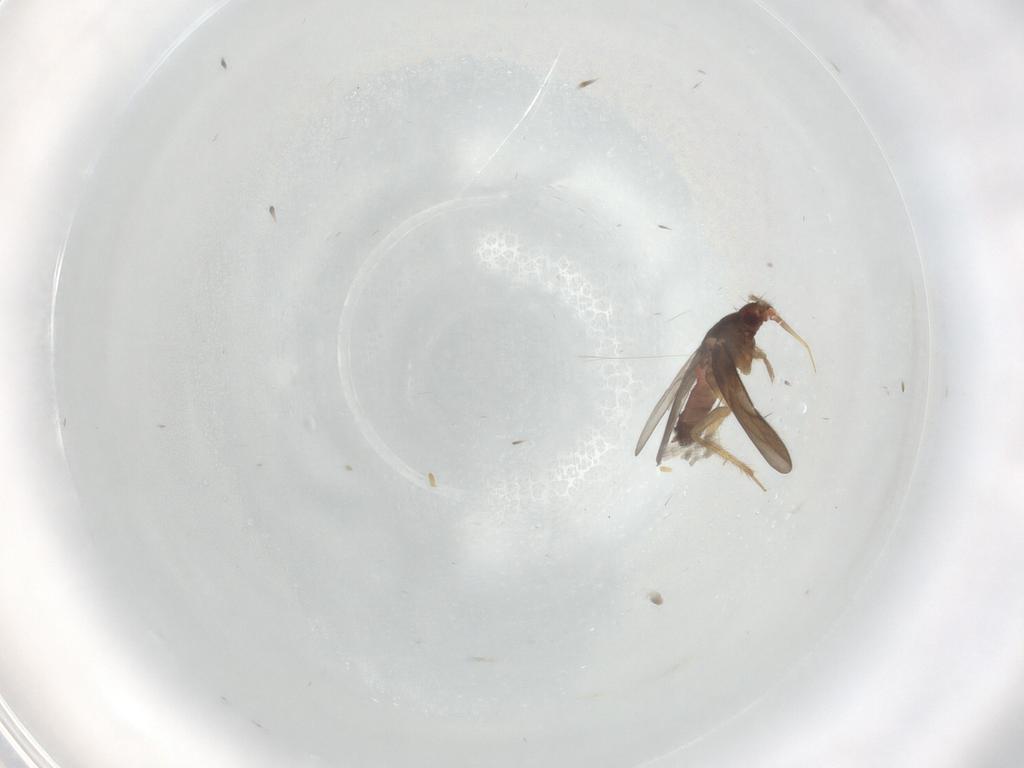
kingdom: Animalia
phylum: Arthropoda
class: Insecta
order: Hemiptera
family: Ceratocombidae
